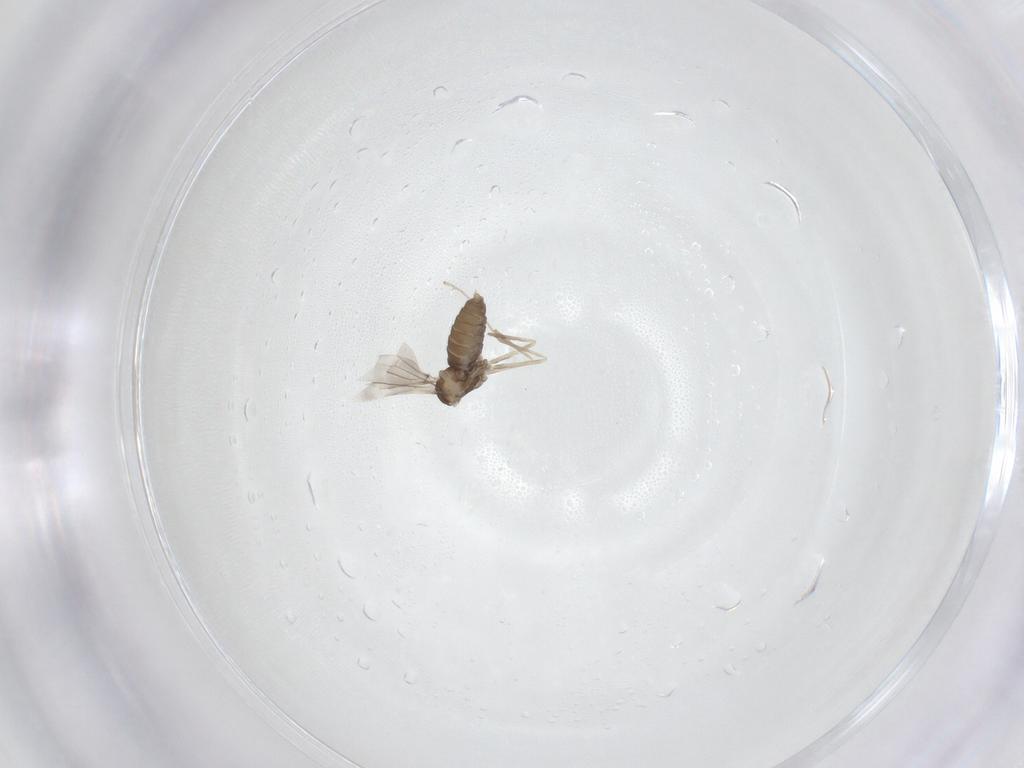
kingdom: Animalia
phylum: Arthropoda
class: Insecta
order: Diptera
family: Cecidomyiidae
